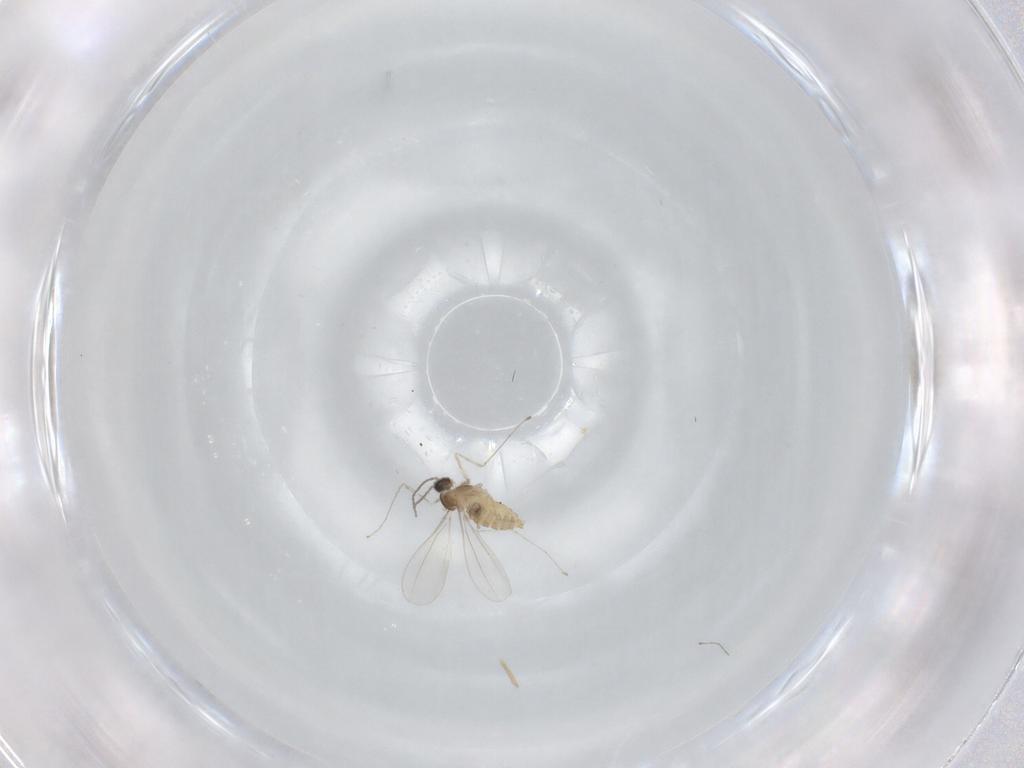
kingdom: Animalia
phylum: Arthropoda
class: Insecta
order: Diptera
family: Cecidomyiidae
